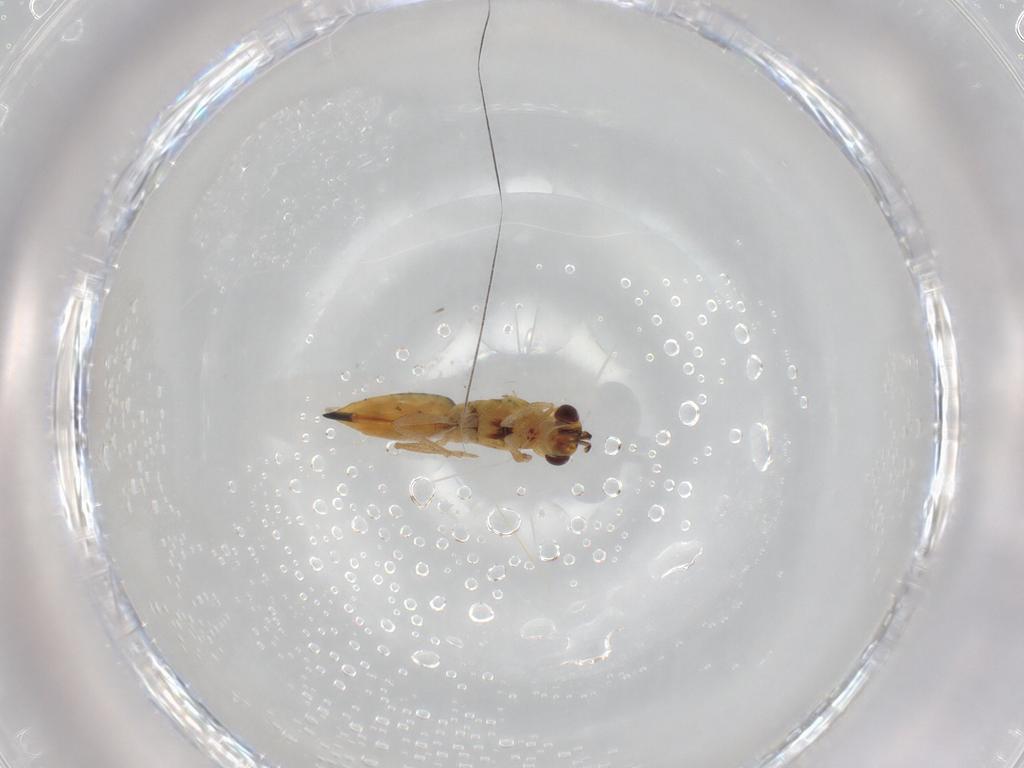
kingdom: Animalia
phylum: Arthropoda
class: Insecta
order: Hymenoptera
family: Eulophidae
